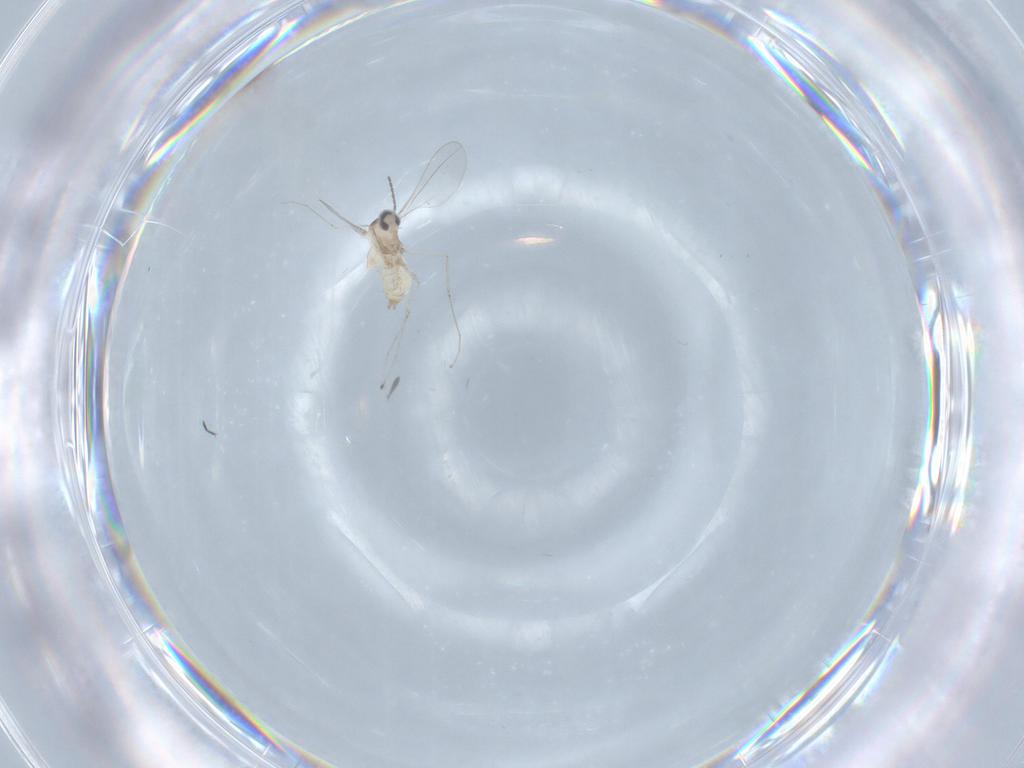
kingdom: Animalia
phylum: Arthropoda
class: Insecta
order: Diptera
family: Cecidomyiidae
